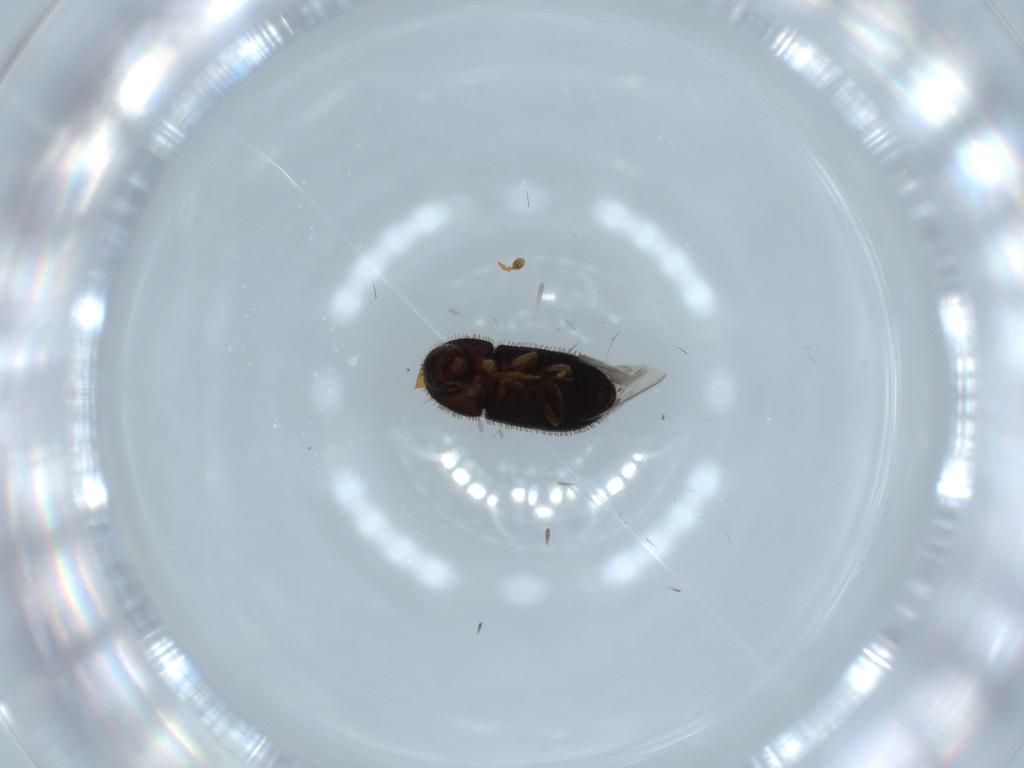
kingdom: Animalia
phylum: Arthropoda
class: Insecta
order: Coleoptera
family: Curculionidae
